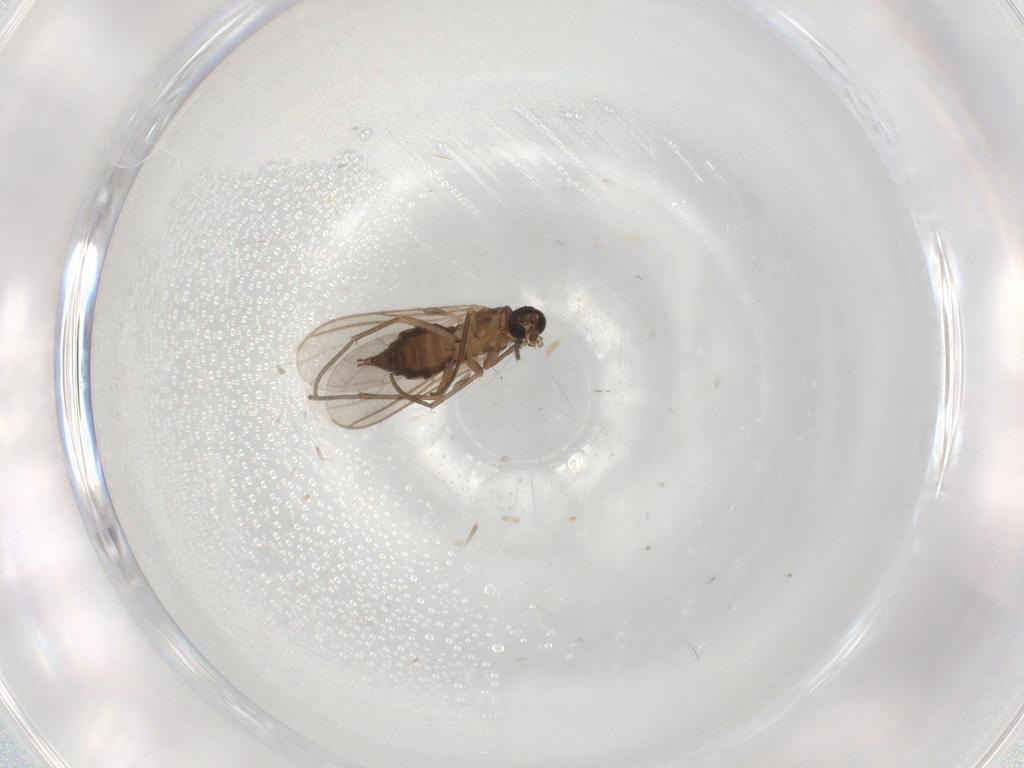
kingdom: Animalia
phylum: Arthropoda
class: Insecta
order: Diptera
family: Sciaridae
